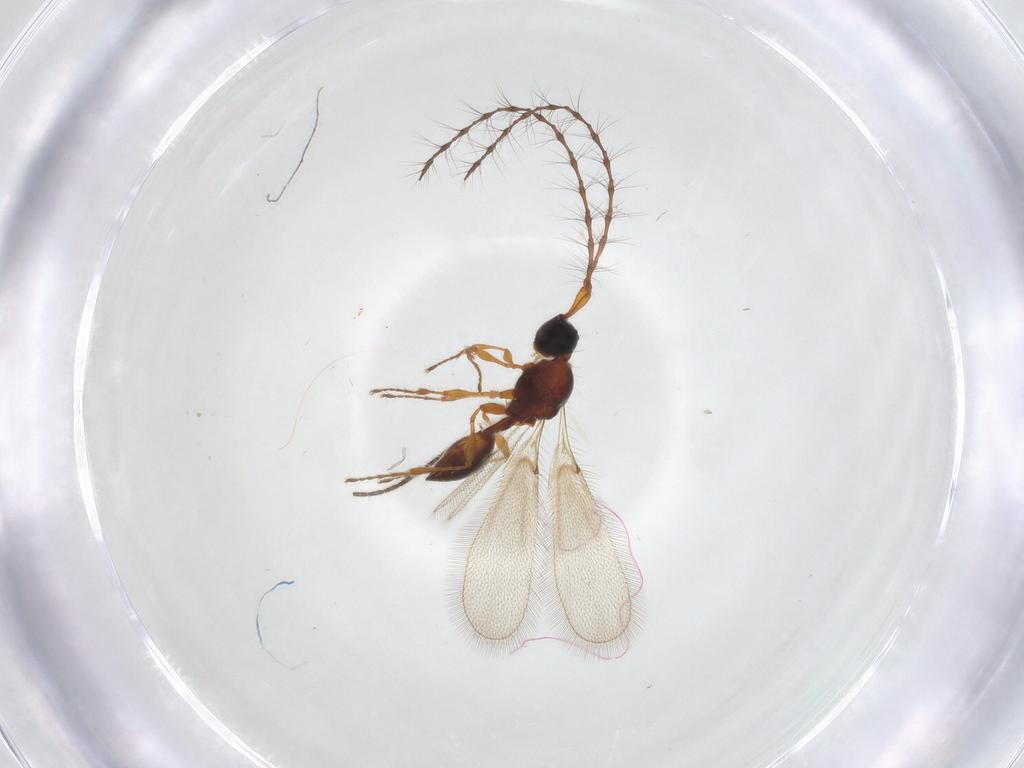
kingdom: Animalia
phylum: Arthropoda
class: Insecta
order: Hymenoptera
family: Diapriidae
